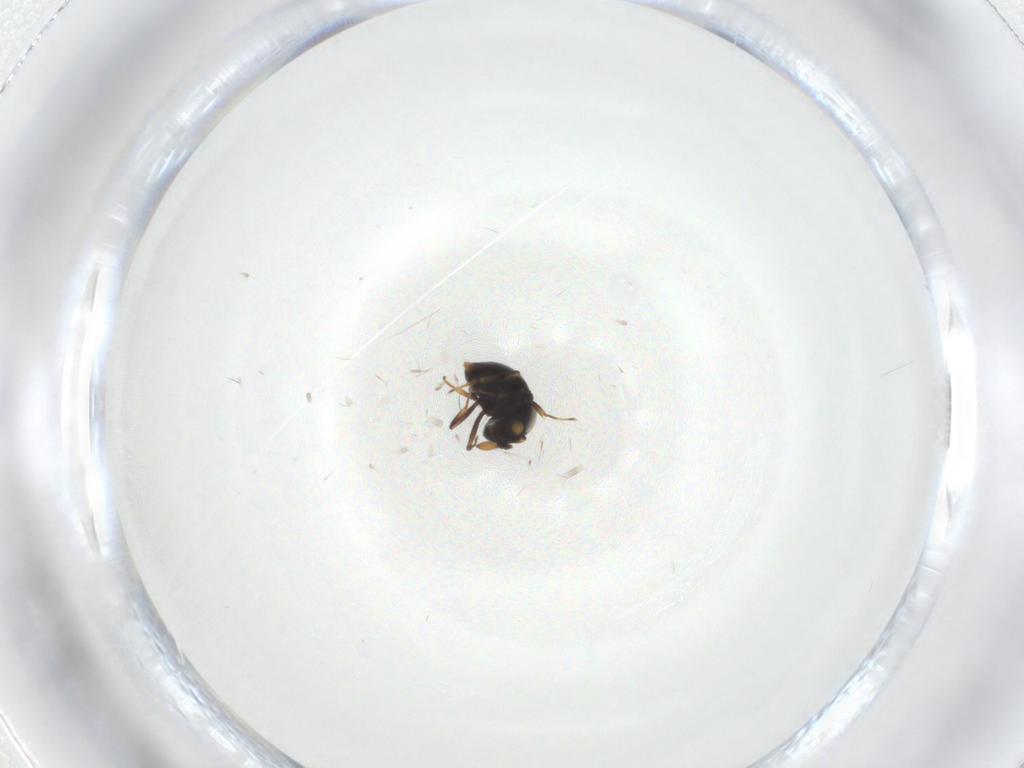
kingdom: Animalia
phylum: Arthropoda
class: Insecta
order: Hymenoptera
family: Scelionidae
